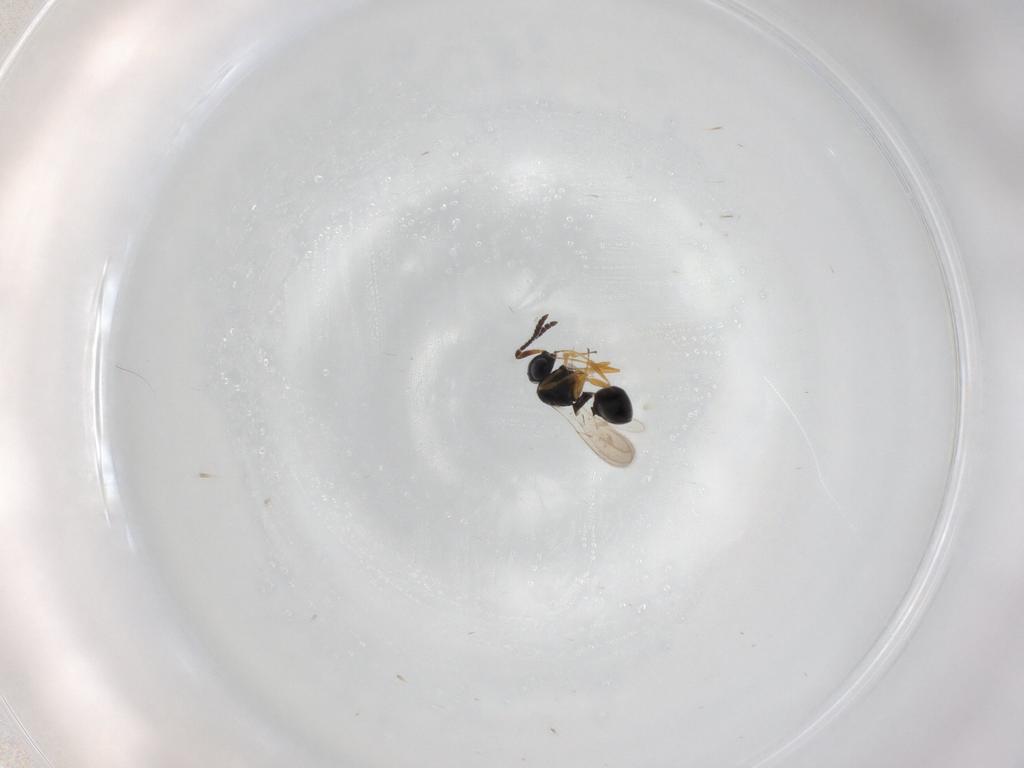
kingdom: Animalia
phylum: Arthropoda
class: Insecta
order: Hymenoptera
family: Scelionidae
